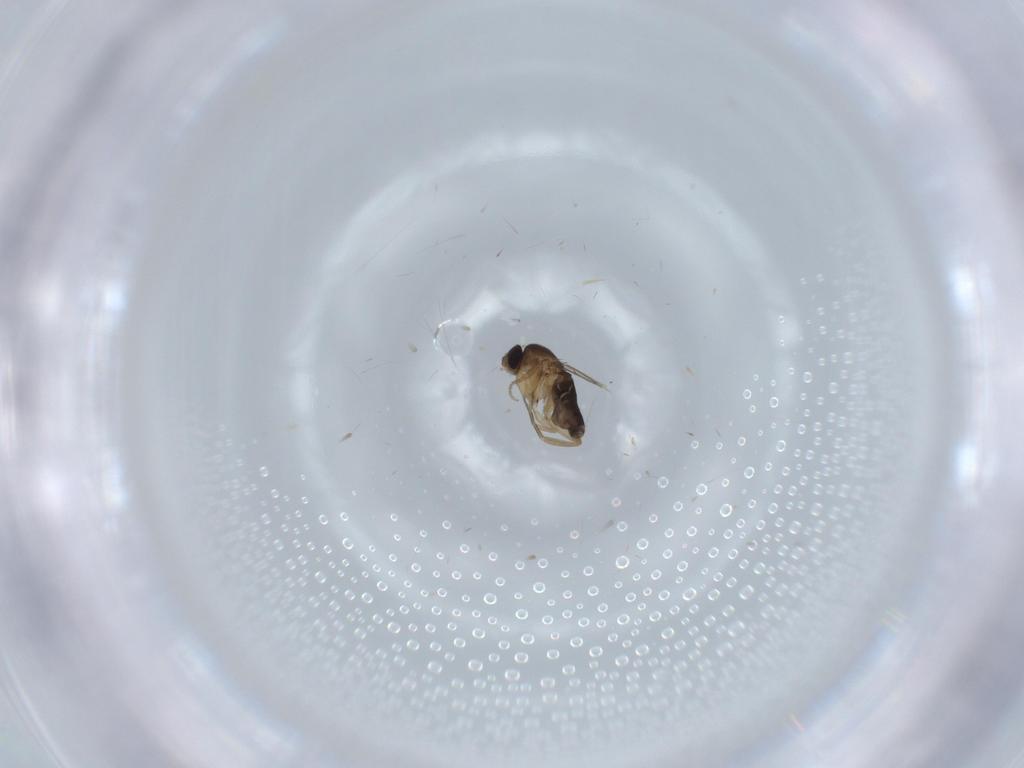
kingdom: Animalia
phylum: Arthropoda
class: Insecta
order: Diptera
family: Phoridae
